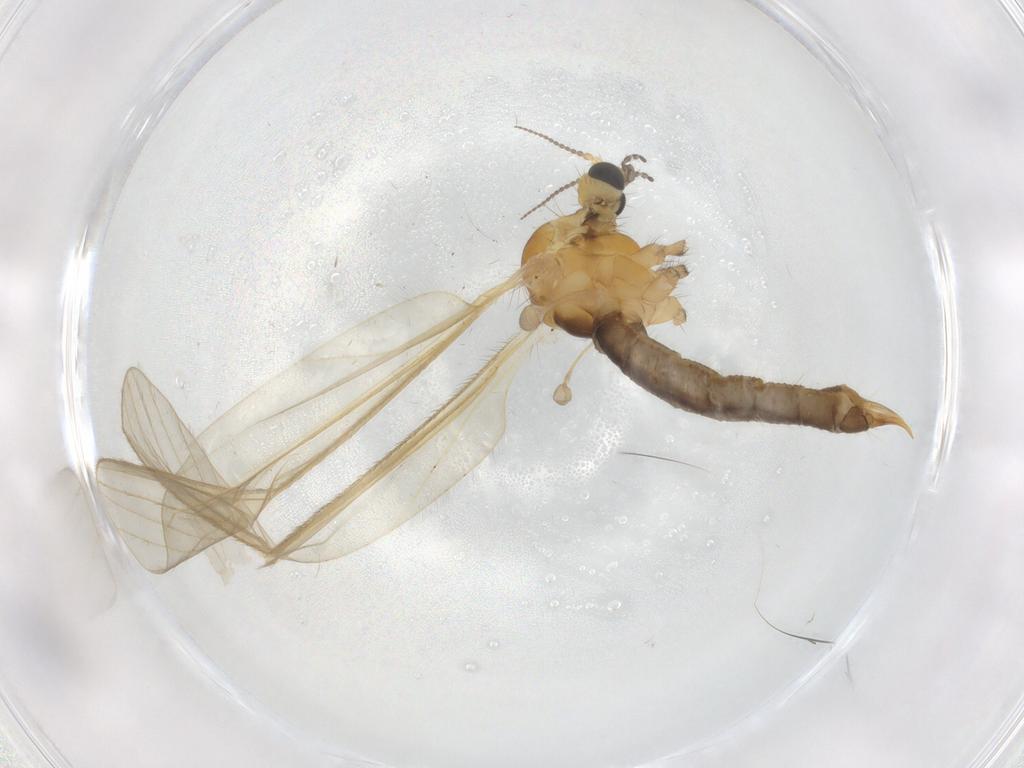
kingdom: Animalia
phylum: Arthropoda
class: Insecta
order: Diptera
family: Limoniidae
